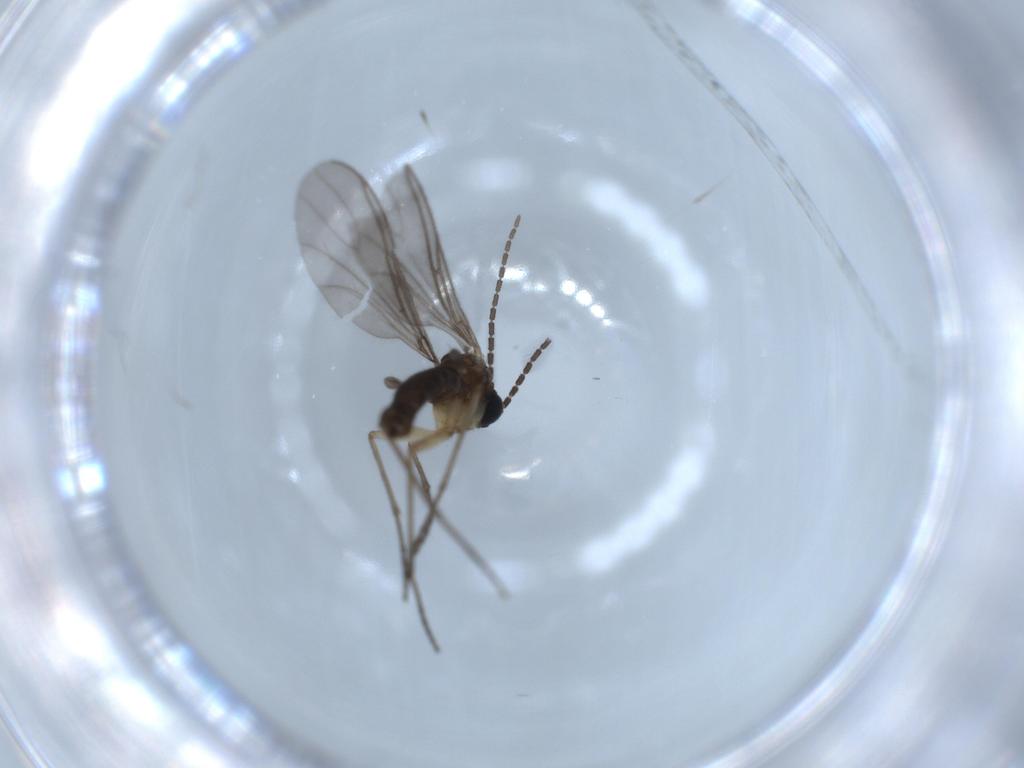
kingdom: Animalia
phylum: Arthropoda
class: Insecta
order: Diptera
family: Sciaridae
